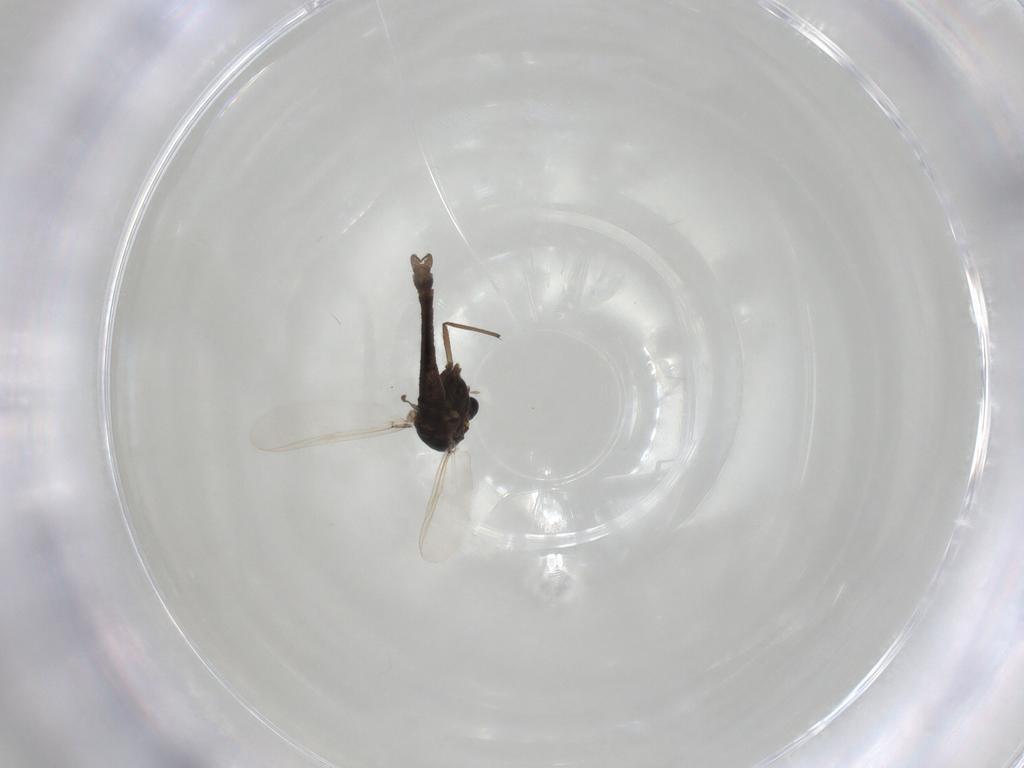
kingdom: Animalia
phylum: Arthropoda
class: Insecta
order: Diptera
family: Chironomidae
